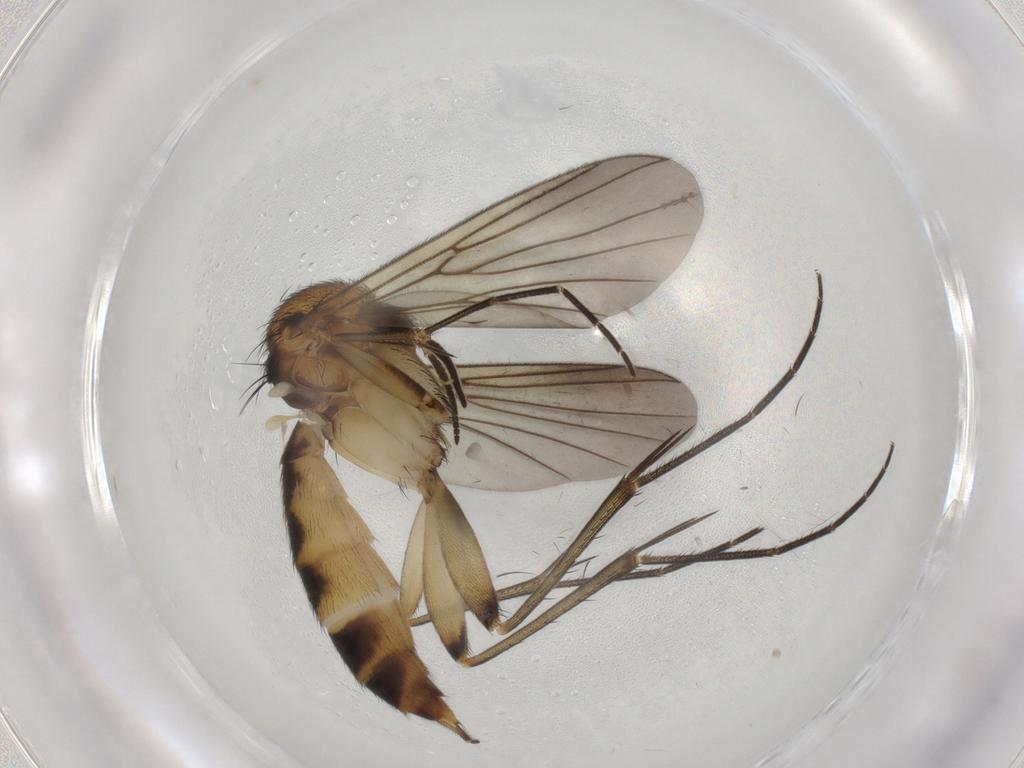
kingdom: Animalia
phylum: Arthropoda
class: Insecta
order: Diptera
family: Mycetophilidae
